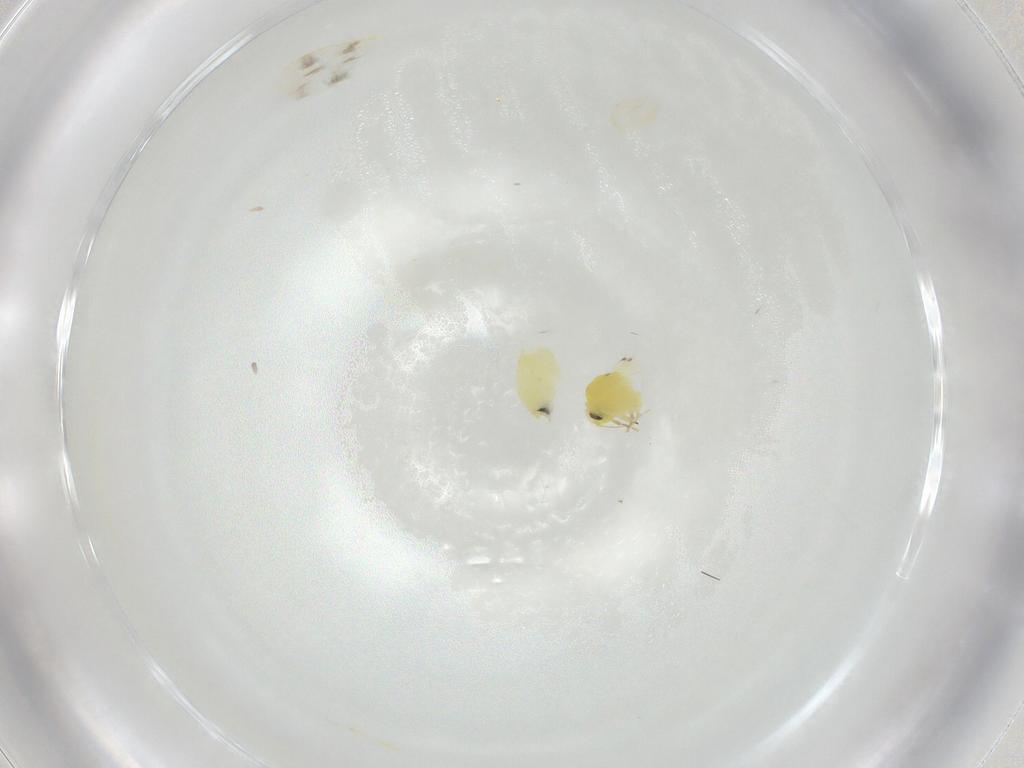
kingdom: Animalia
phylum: Arthropoda
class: Insecta
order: Hemiptera
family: Aleyrodidae
